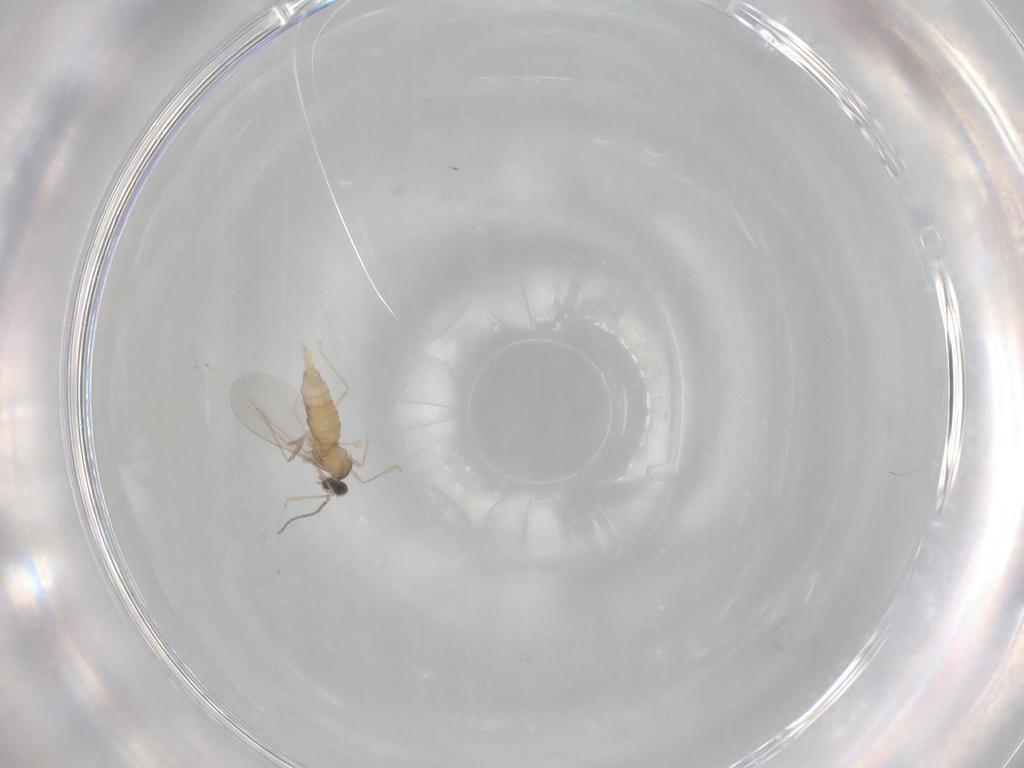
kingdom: Animalia
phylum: Arthropoda
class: Insecta
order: Diptera
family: Cecidomyiidae
